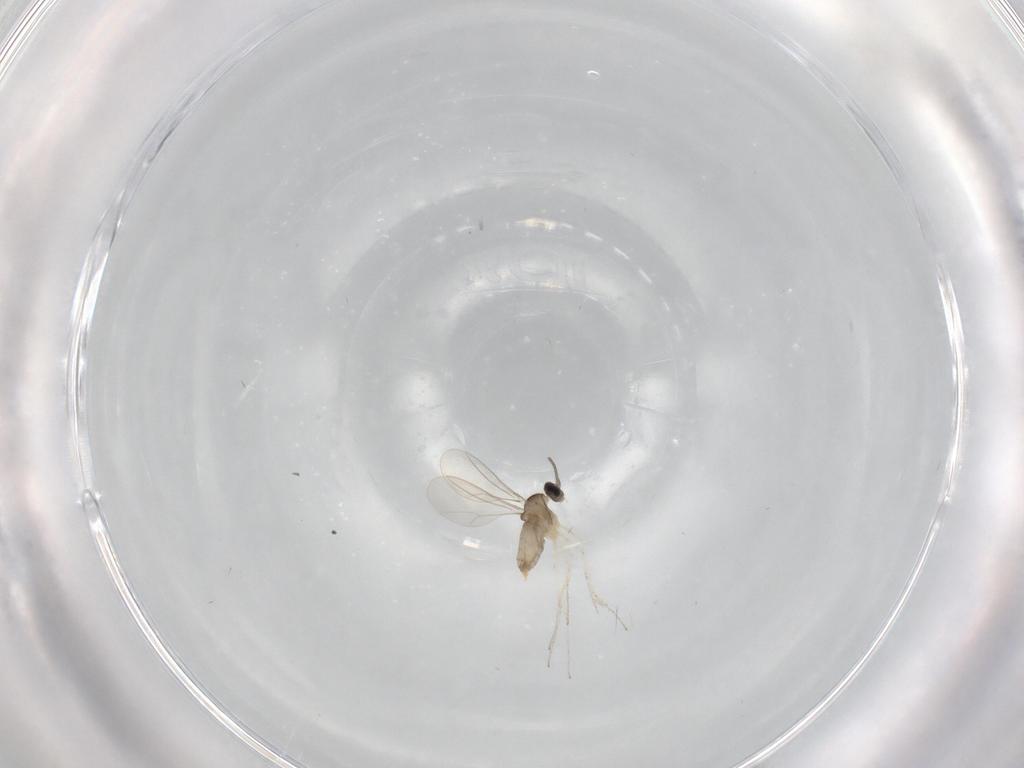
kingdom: Animalia
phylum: Arthropoda
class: Insecta
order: Diptera
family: Cecidomyiidae
